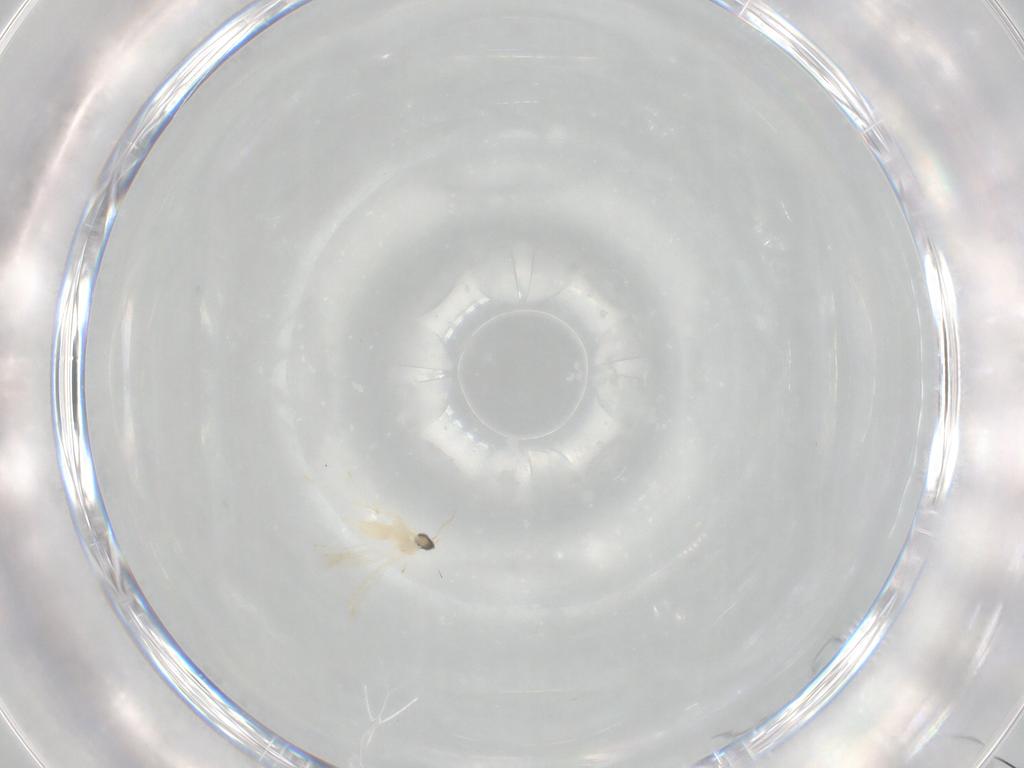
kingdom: Animalia
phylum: Arthropoda
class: Insecta
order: Diptera
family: Cecidomyiidae
